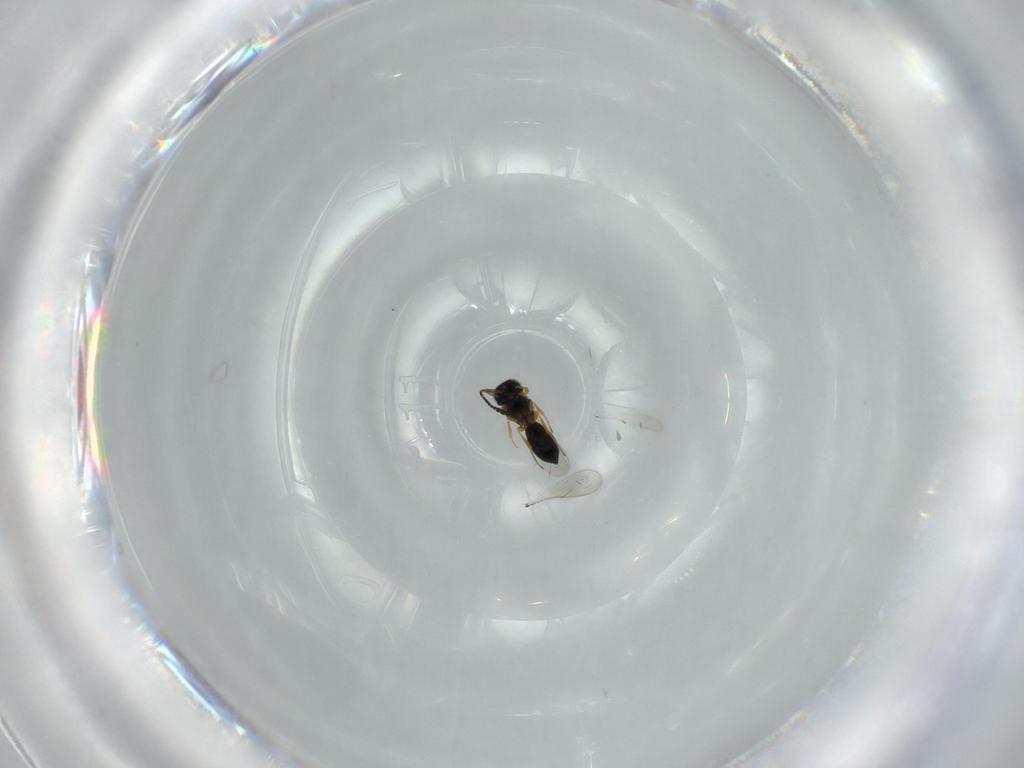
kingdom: Animalia
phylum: Arthropoda
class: Insecta
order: Hymenoptera
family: Scelionidae
